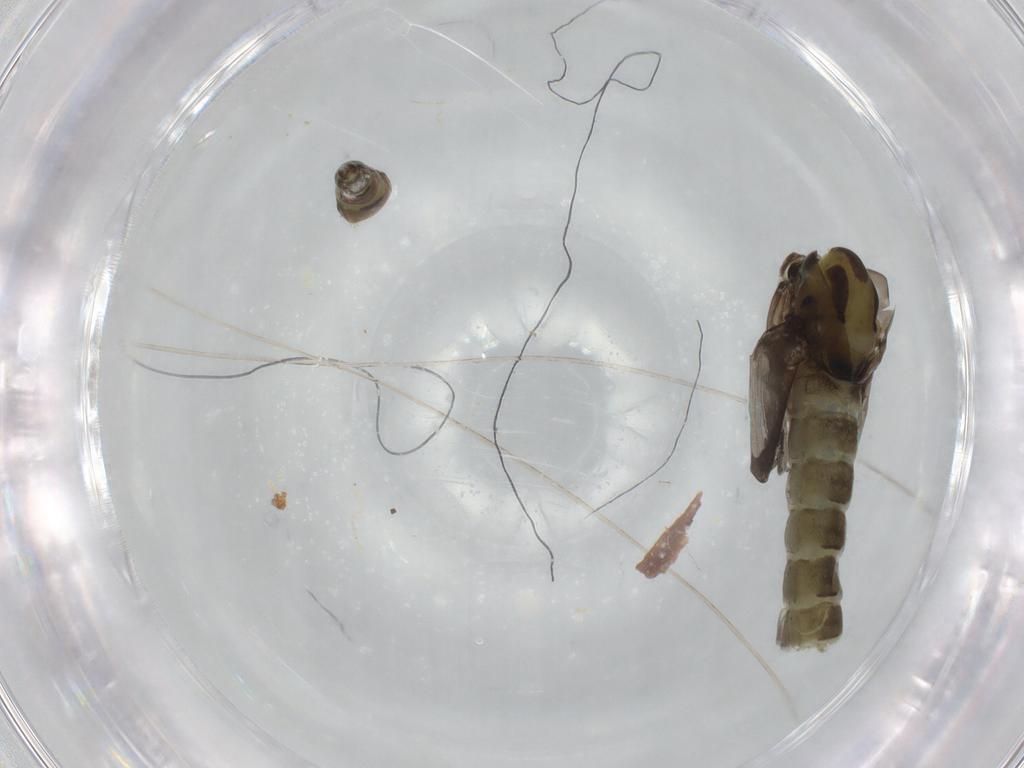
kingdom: Animalia
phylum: Arthropoda
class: Insecta
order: Diptera
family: Empididae
